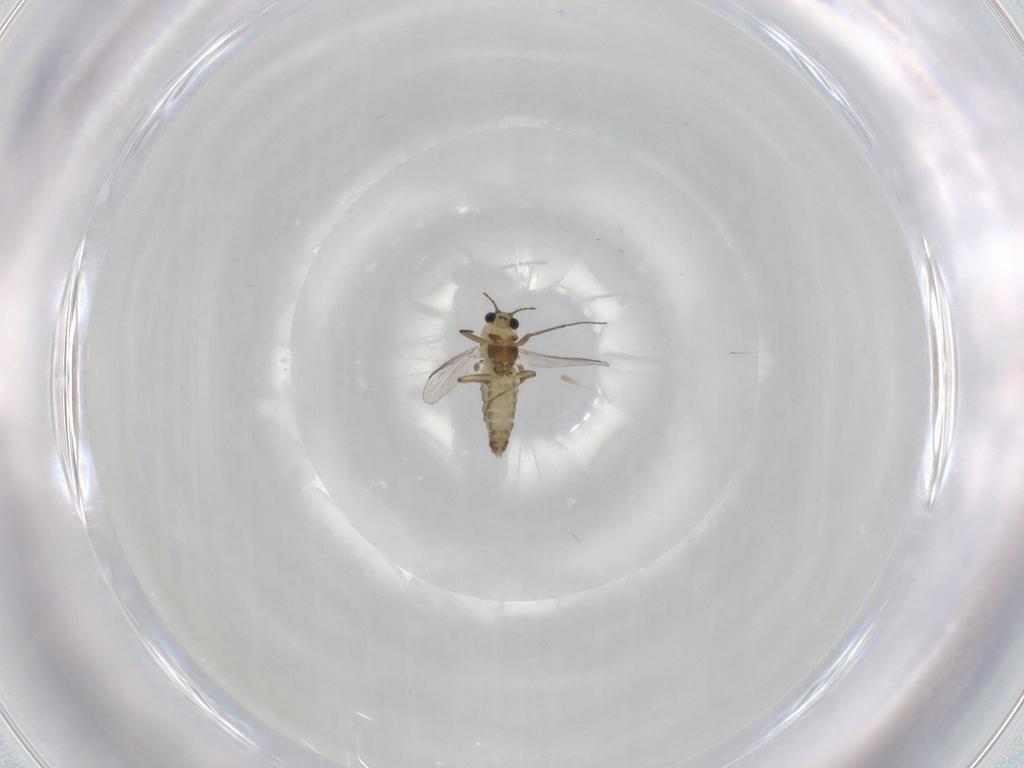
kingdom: Animalia
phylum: Arthropoda
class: Insecta
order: Diptera
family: Chironomidae
